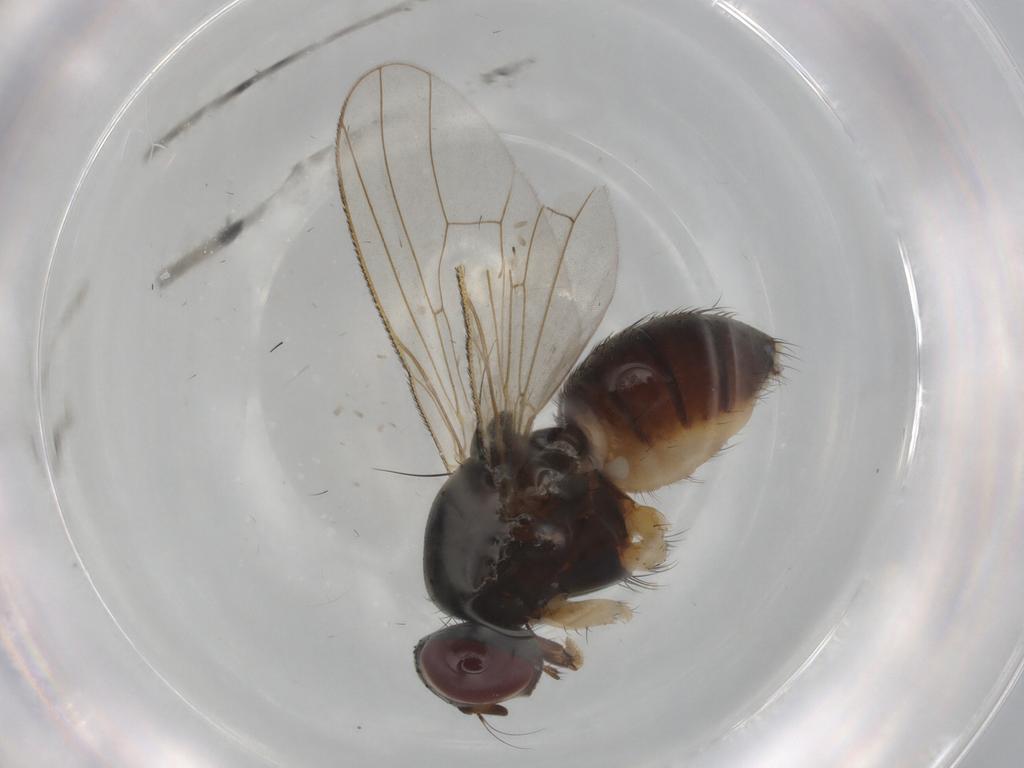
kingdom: Animalia
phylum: Arthropoda
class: Insecta
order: Diptera
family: Muscidae
